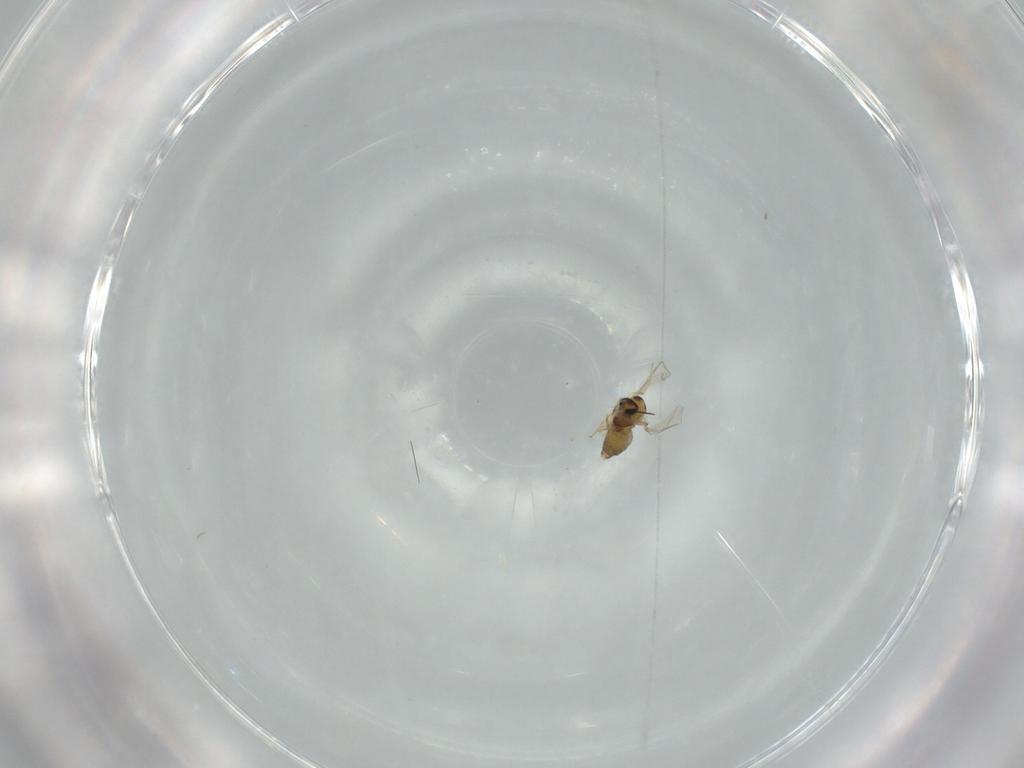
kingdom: Animalia
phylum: Arthropoda
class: Insecta
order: Diptera
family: Chironomidae
